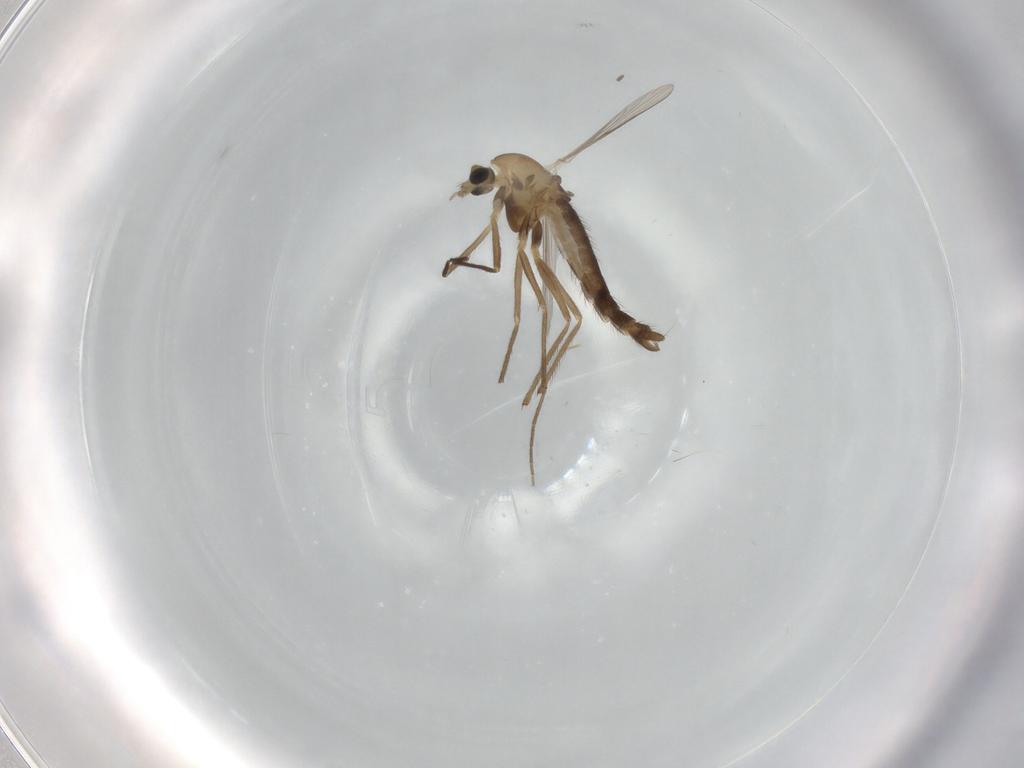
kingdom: Animalia
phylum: Arthropoda
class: Insecta
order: Diptera
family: Chironomidae
